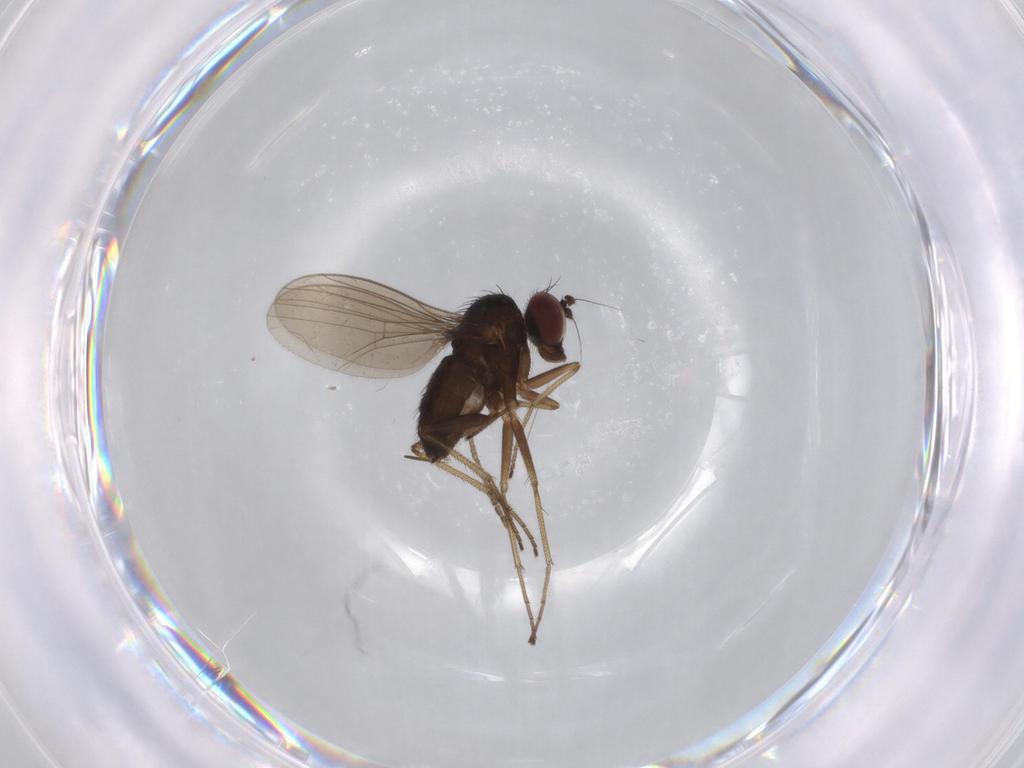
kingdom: Animalia
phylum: Arthropoda
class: Insecta
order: Diptera
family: Dolichopodidae
